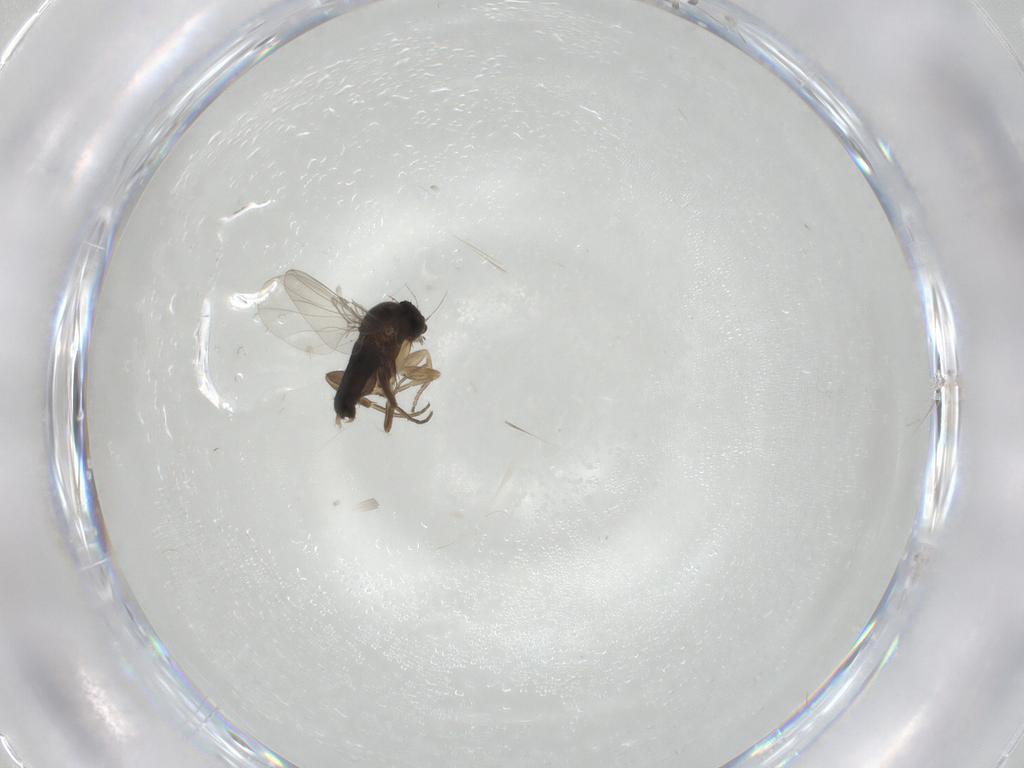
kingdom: Animalia
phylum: Arthropoda
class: Insecta
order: Diptera
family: Phoridae
